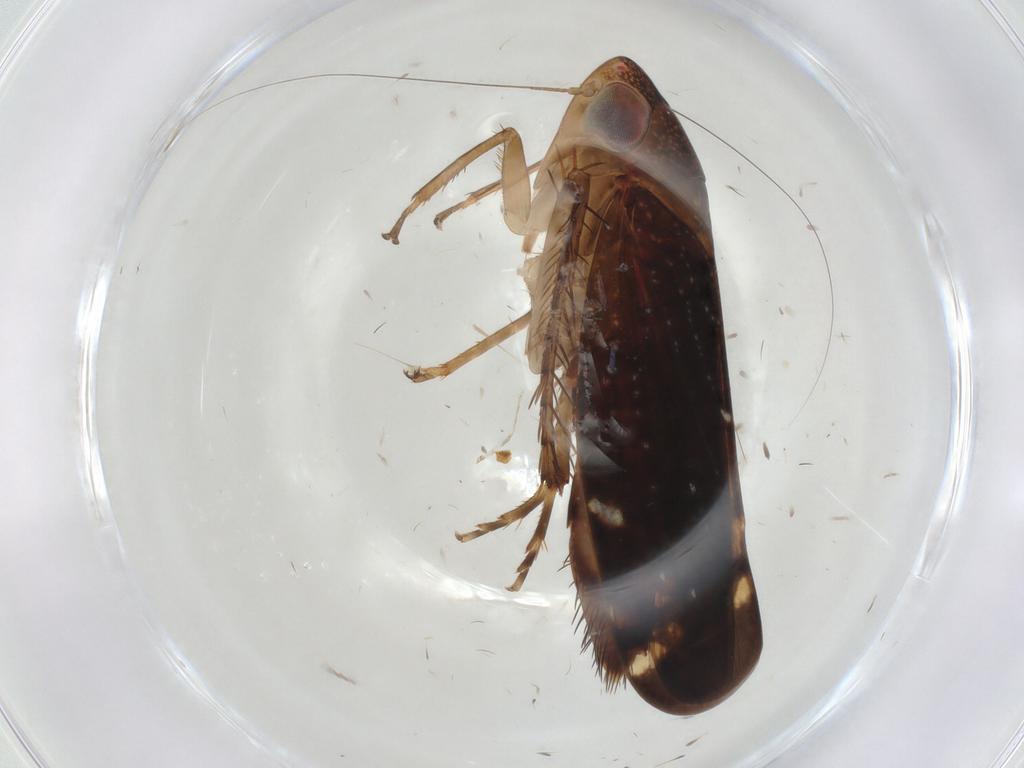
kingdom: Animalia
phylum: Arthropoda
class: Insecta
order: Hemiptera
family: Cicadellidae
